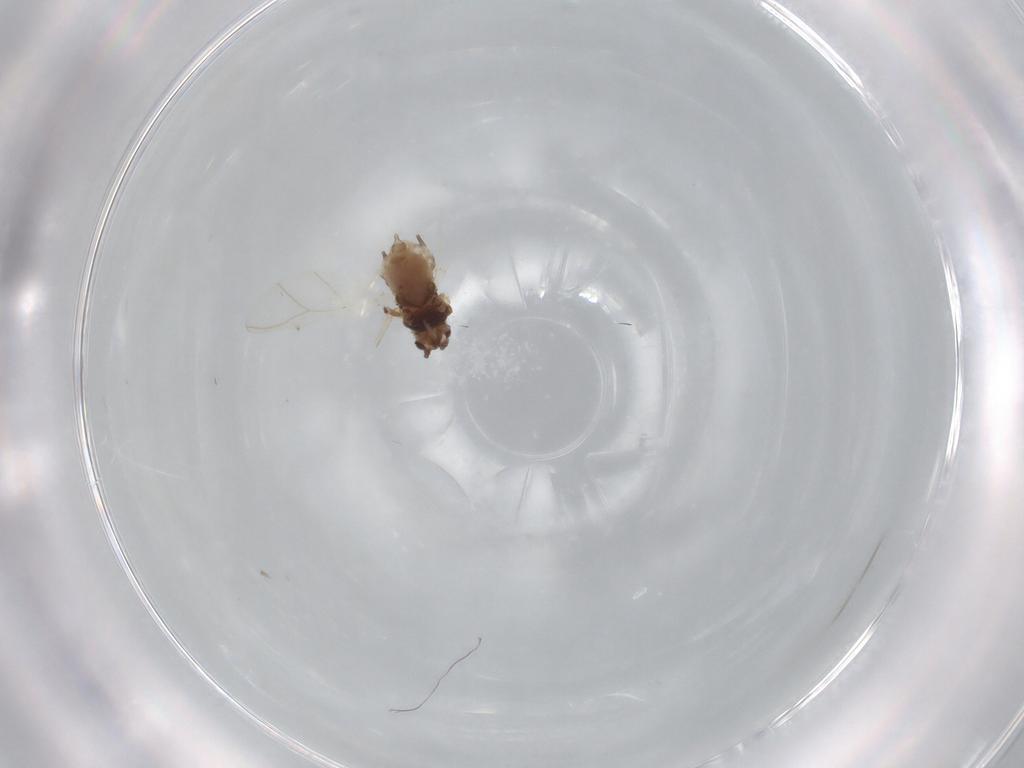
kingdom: Animalia
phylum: Arthropoda
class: Insecta
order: Hemiptera
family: Aphididae
